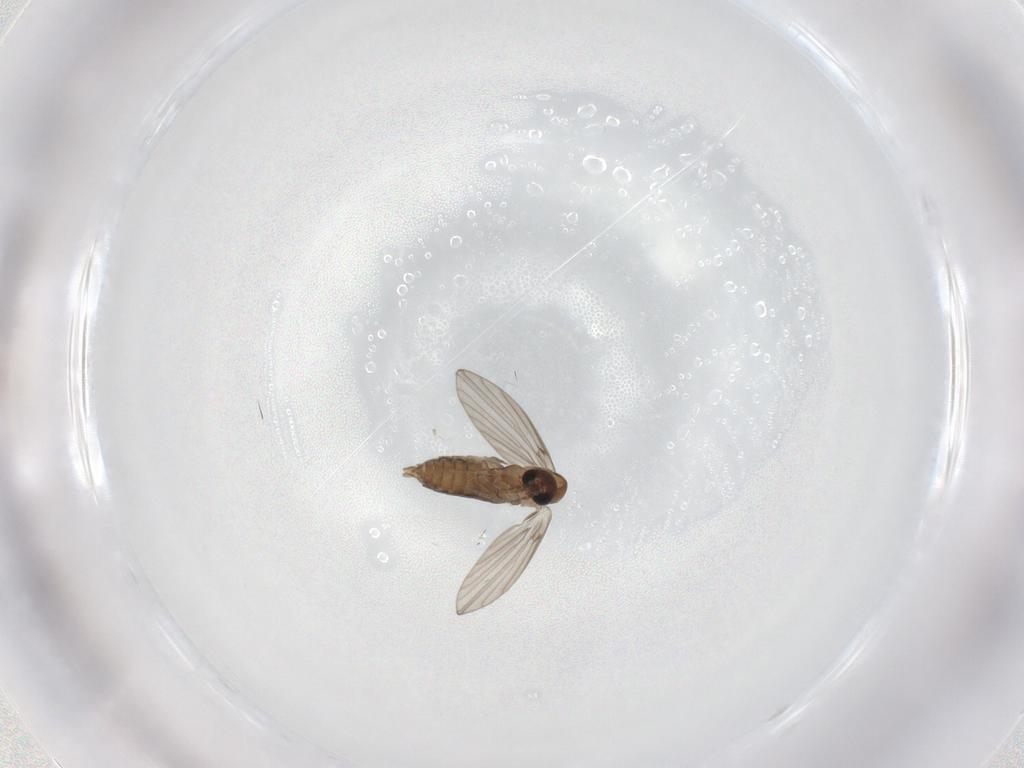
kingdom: Animalia
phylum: Arthropoda
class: Insecta
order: Diptera
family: Psychodidae
